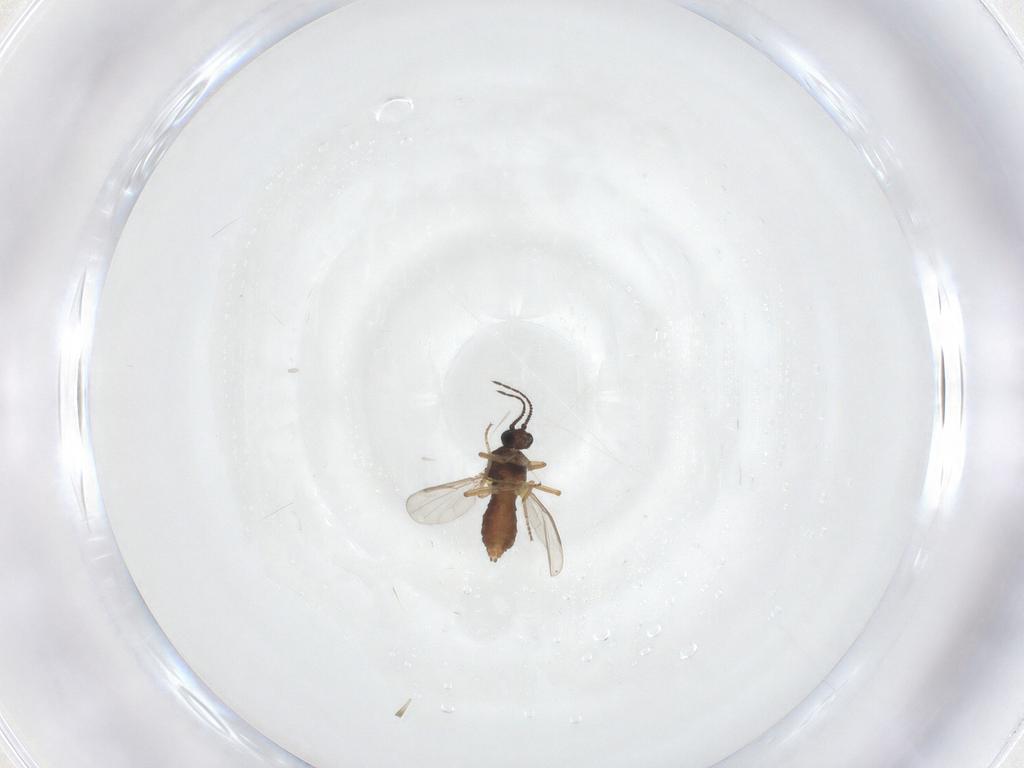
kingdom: Animalia
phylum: Arthropoda
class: Insecta
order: Diptera
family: Ceratopogonidae
